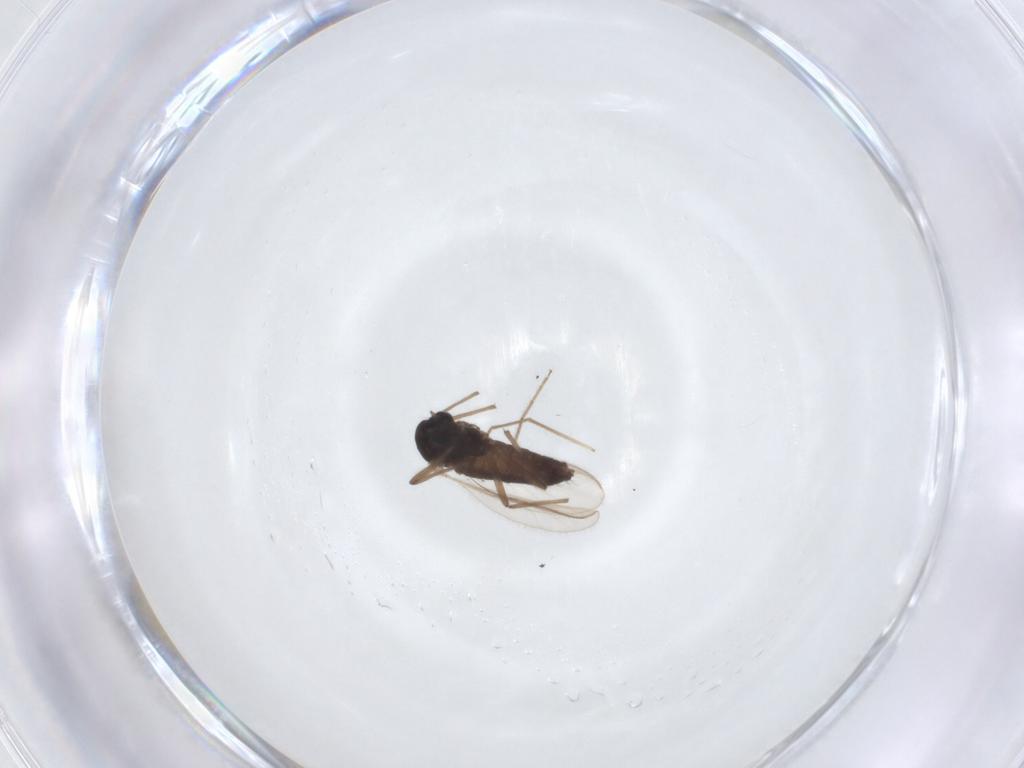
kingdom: Animalia
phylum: Arthropoda
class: Insecta
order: Diptera
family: Chironomidae
